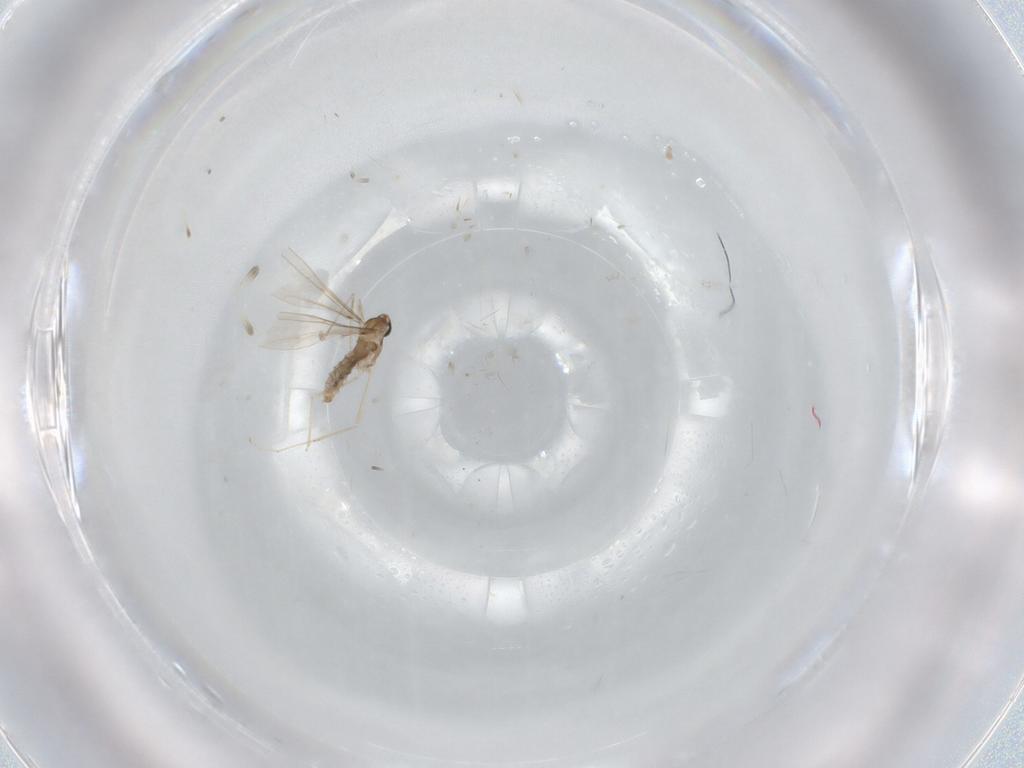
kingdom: Animalia
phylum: Arthropoda
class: Insecta
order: Diptera
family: Cecidomyiidae
